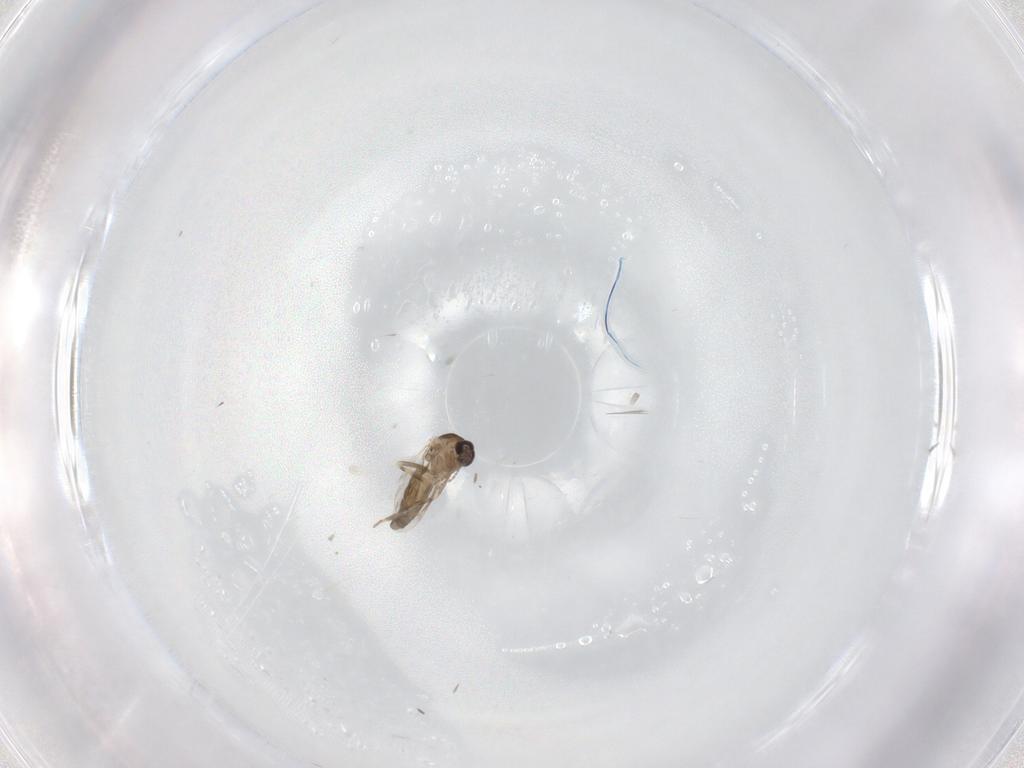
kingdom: Animalia
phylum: Arthropoda
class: Insecta
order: Diptera
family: Ceratopogonidae
